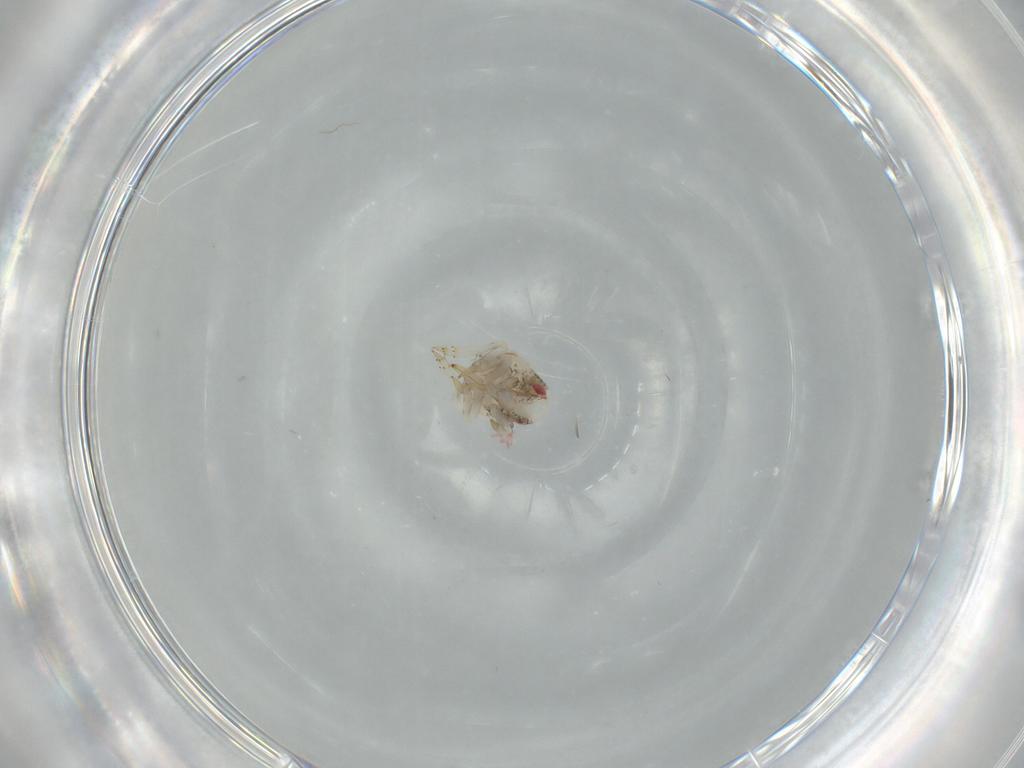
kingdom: Animalia
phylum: Arthropoda
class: Insecta
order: Hemiptera
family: Acanaloniidae
